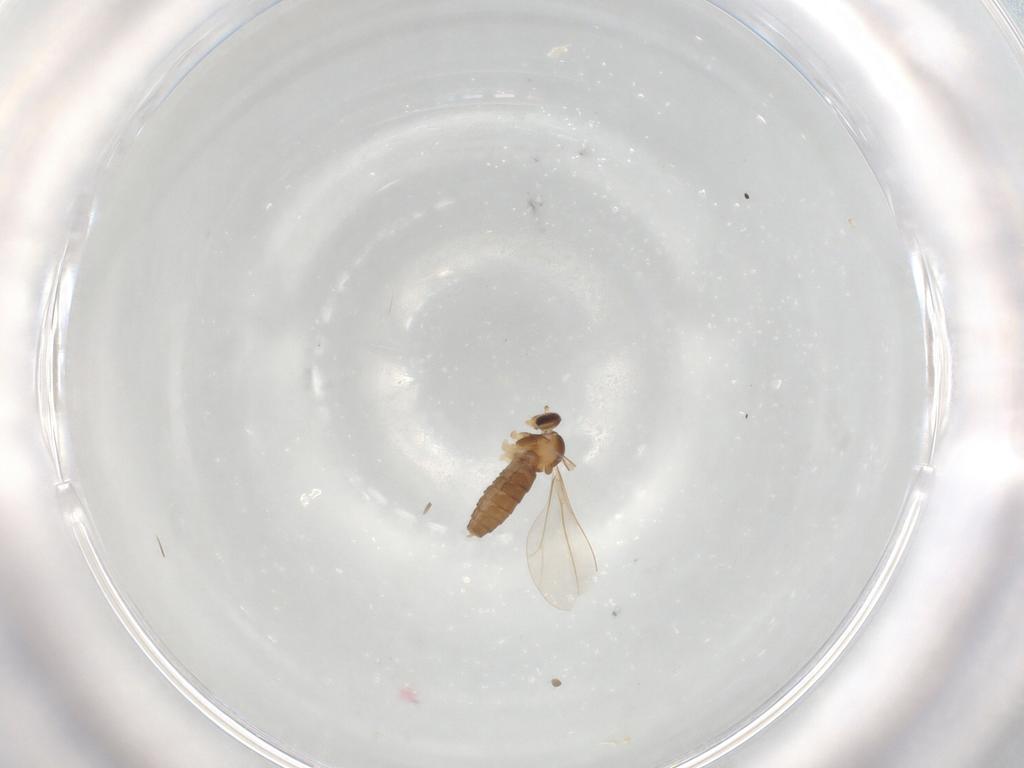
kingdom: Animalia
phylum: Arthropoda
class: Insecta
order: Diptera
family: Cecidomyiidae
